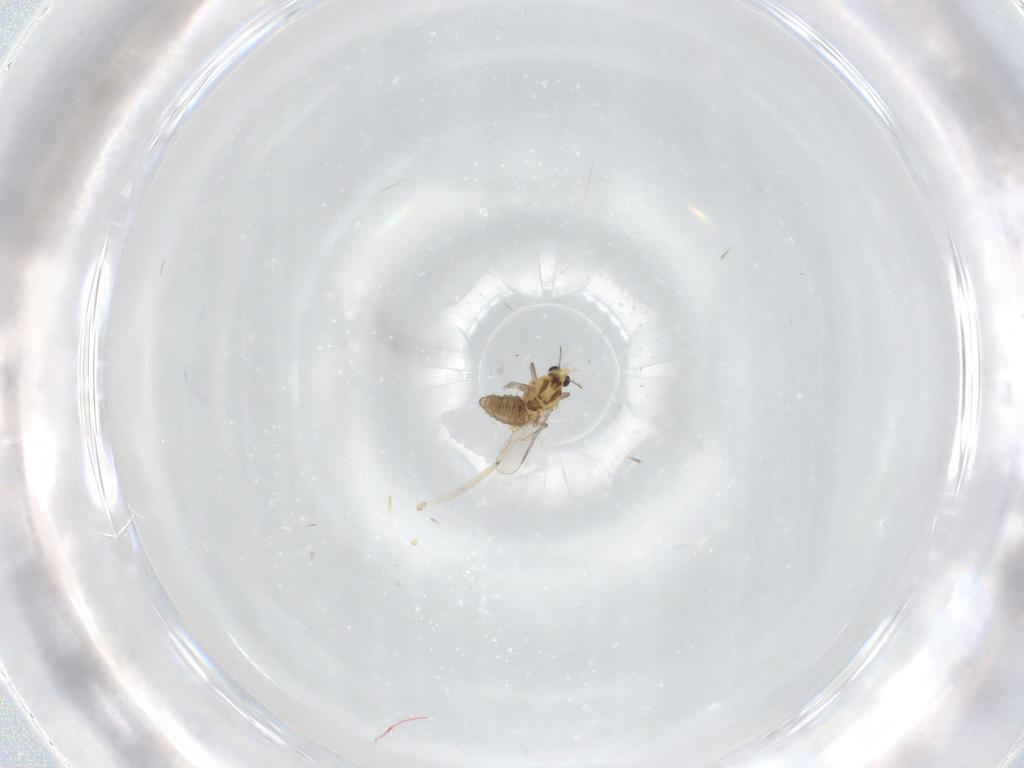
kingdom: Animalia
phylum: Arthropoda
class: Insecta
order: Diptera
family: Chironomidae
